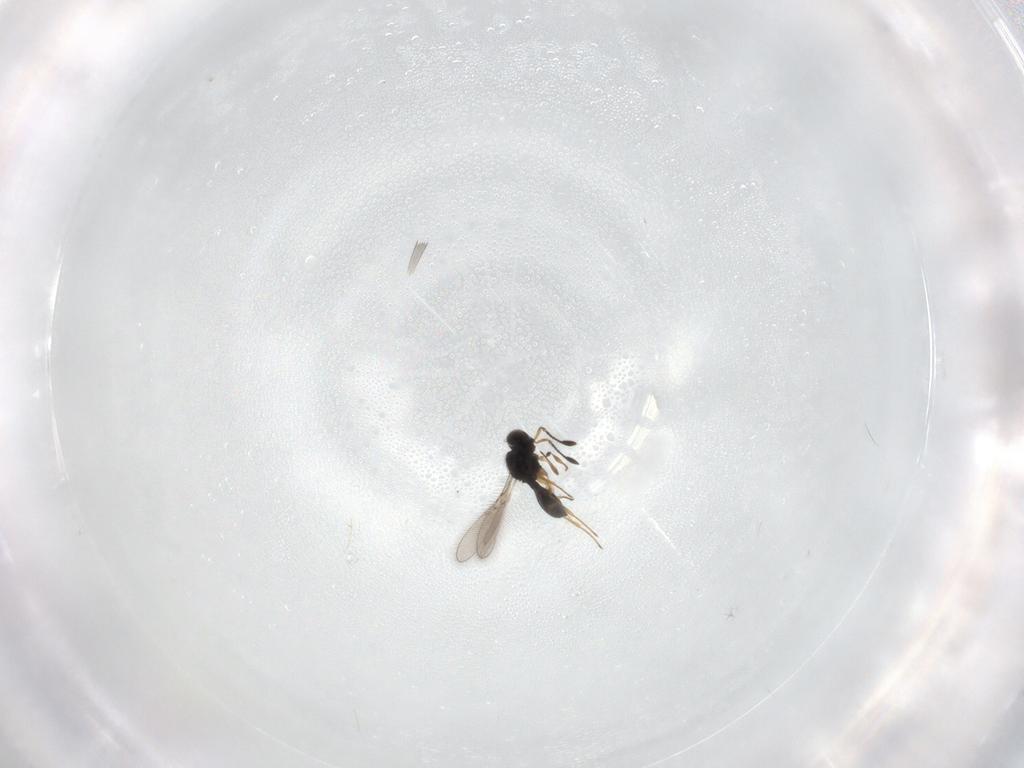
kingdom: Animalia
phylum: Arthropoda
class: Insecta
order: Hymenoptera
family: Scelionidae
